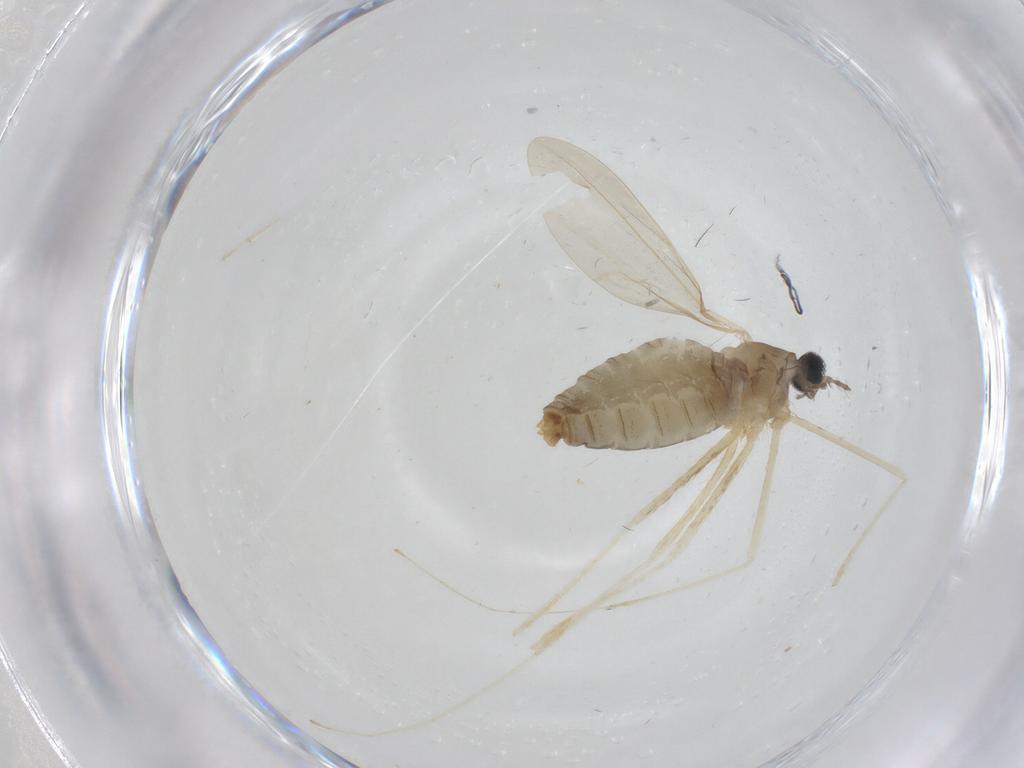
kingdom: Animalia
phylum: Arthropoda
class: Insecta
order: Diptera
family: Cecidomyiidae
